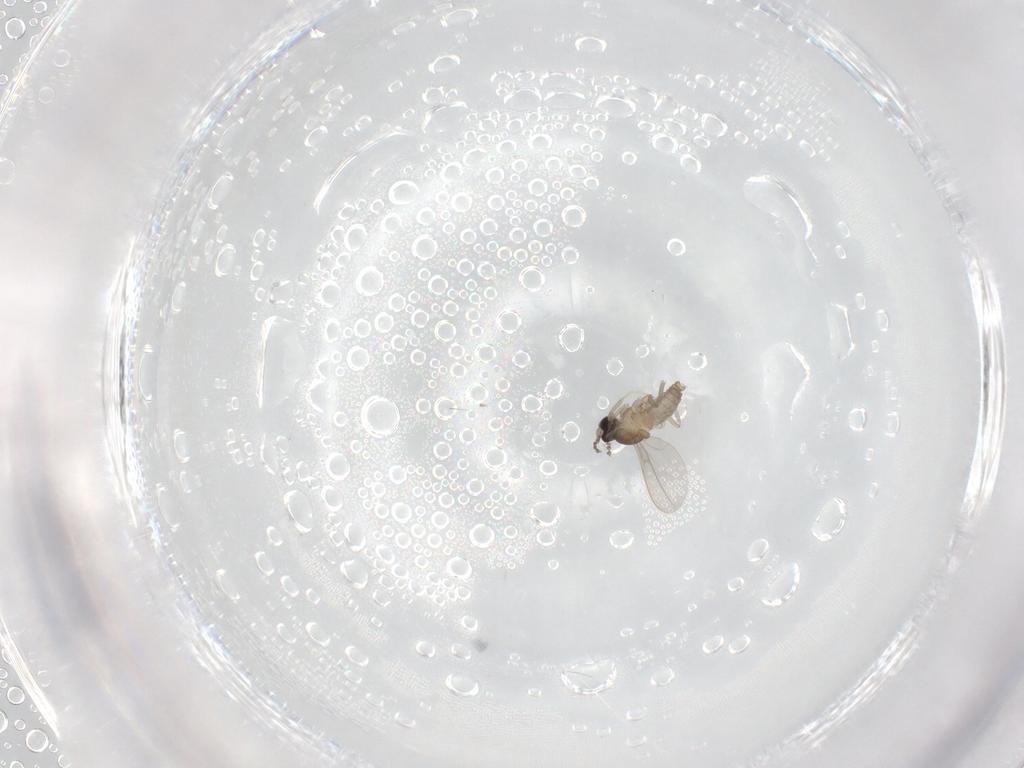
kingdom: Animalia
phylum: Arthropoda
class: Insecta
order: Diptera
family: Cecidomyiidae
